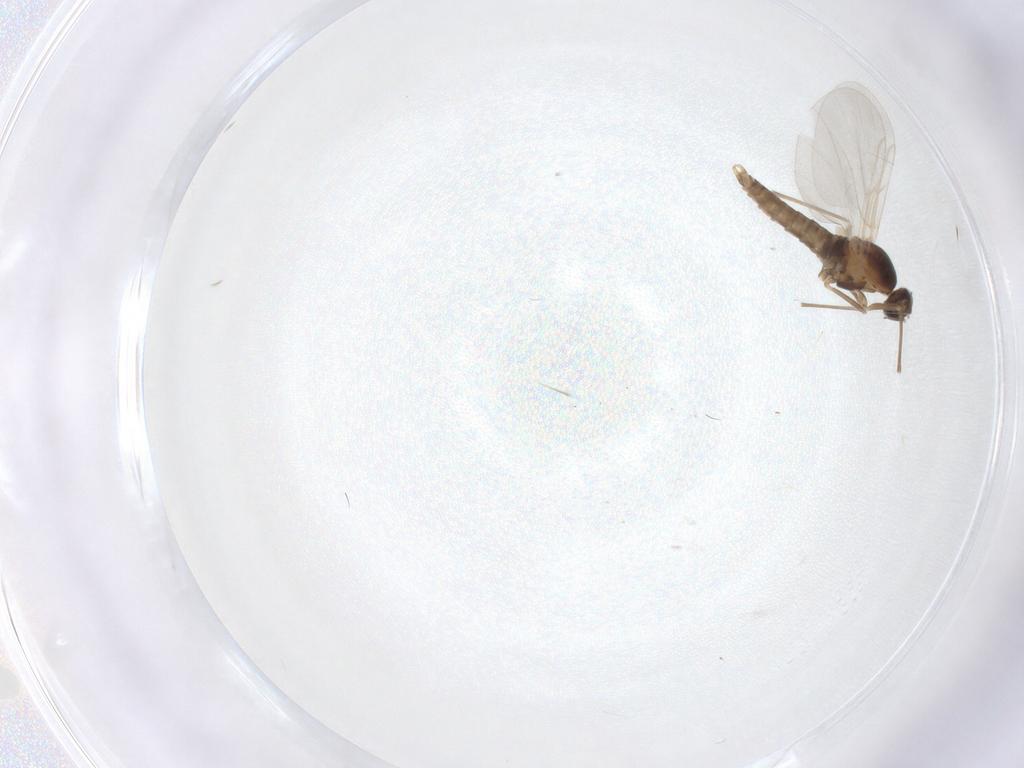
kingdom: Animalia
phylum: Arthropoda
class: Insecta
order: Diptera
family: Cecidomyiidae
